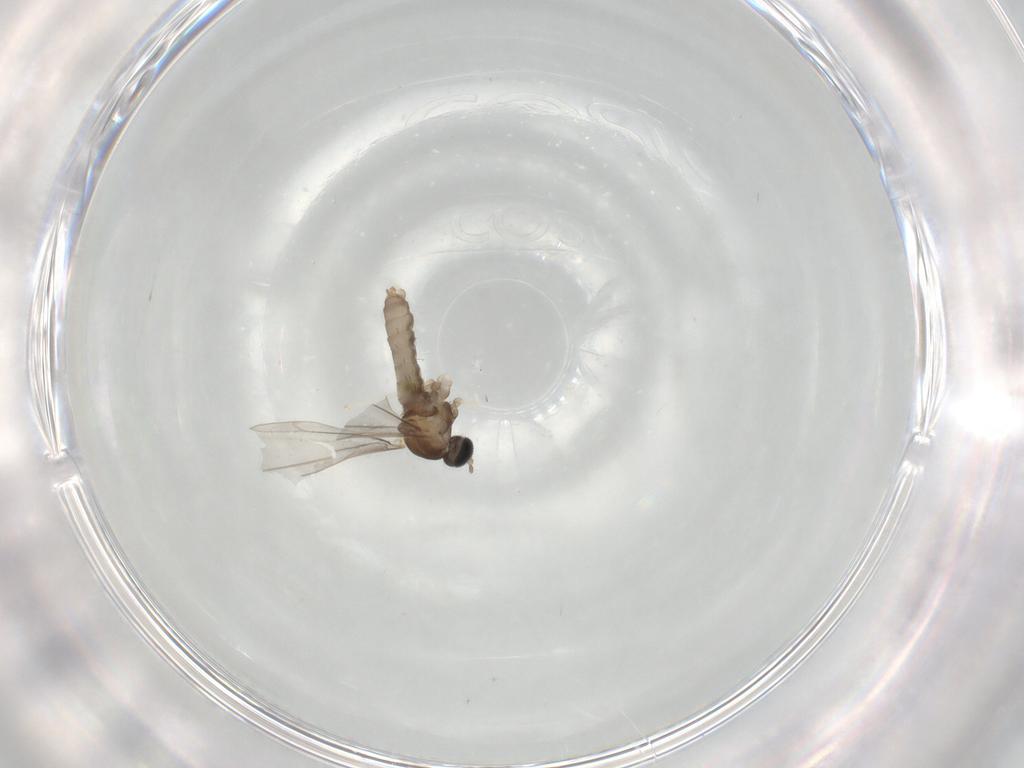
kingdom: Animalia
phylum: Arthropoda
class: Insecta
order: Diptera
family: Cecidomyiidae
